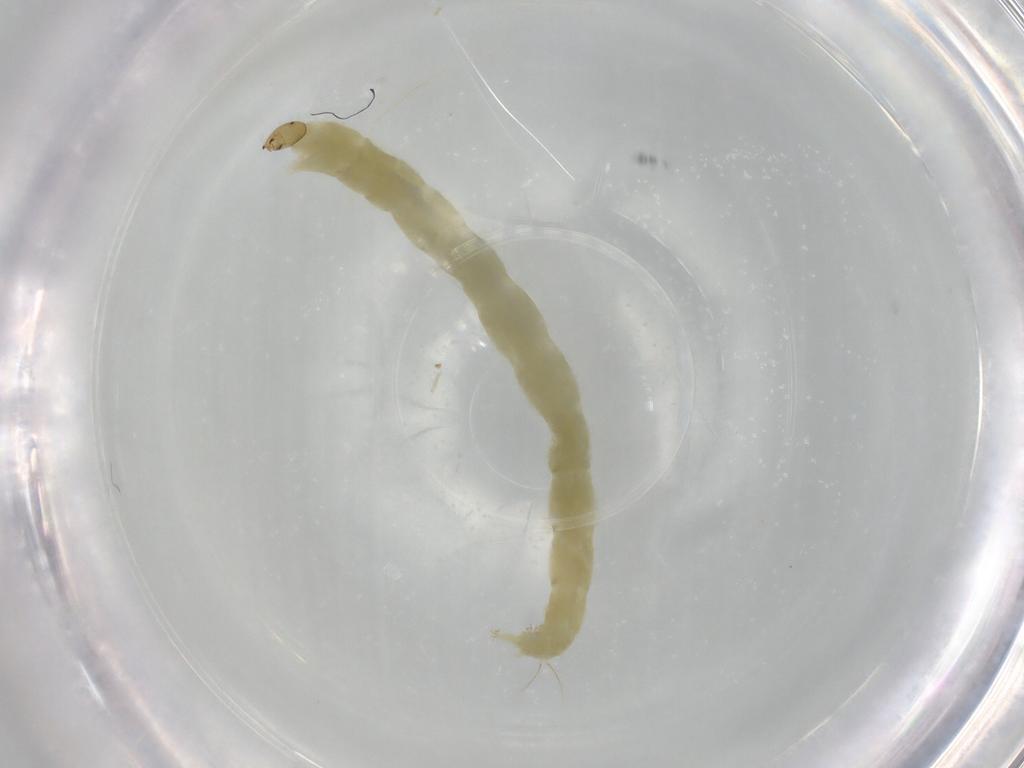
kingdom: Animalia
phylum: Arthropoda
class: Insecta
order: Diptera
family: Chironomidae
